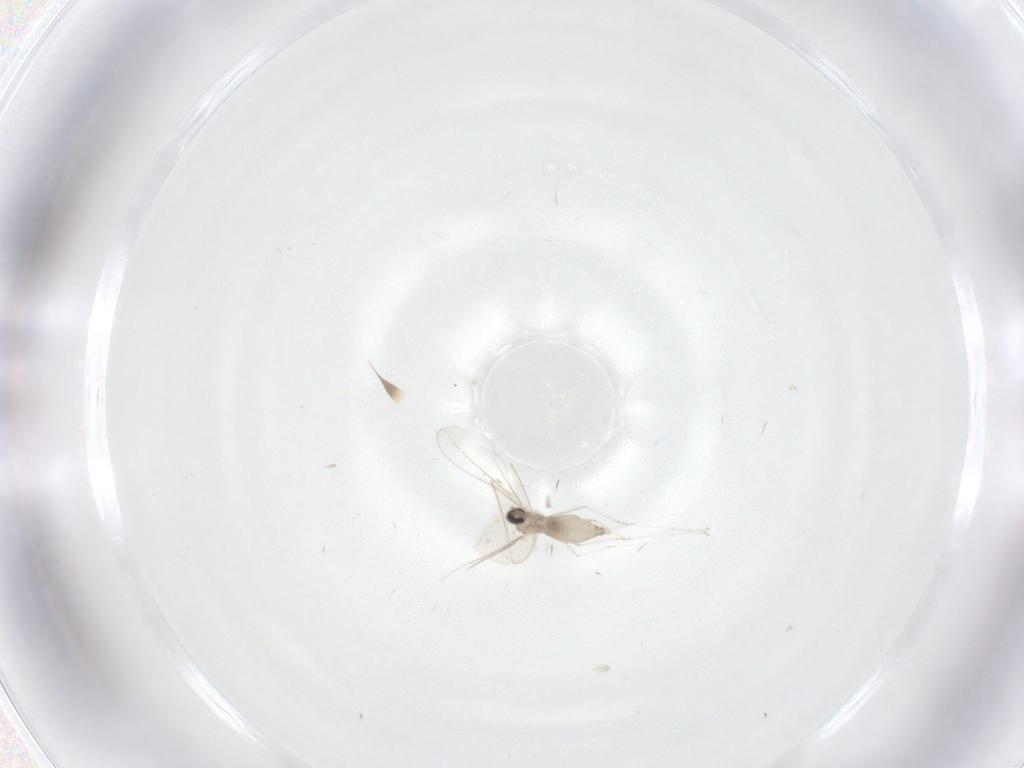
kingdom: Animalia
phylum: Arthropoda
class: Insecta
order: Diptera
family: Cecidomyiidae
